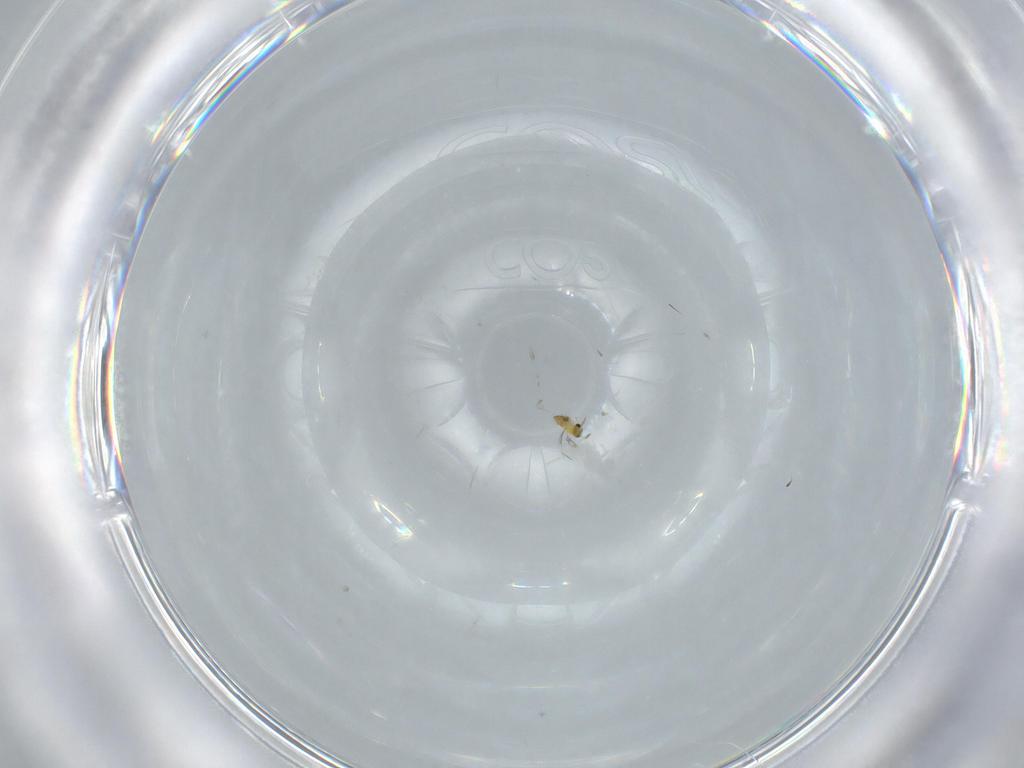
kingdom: Animalia
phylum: Arthropoda
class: Insecta
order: Hymenoptera
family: Trichogrammatidae
